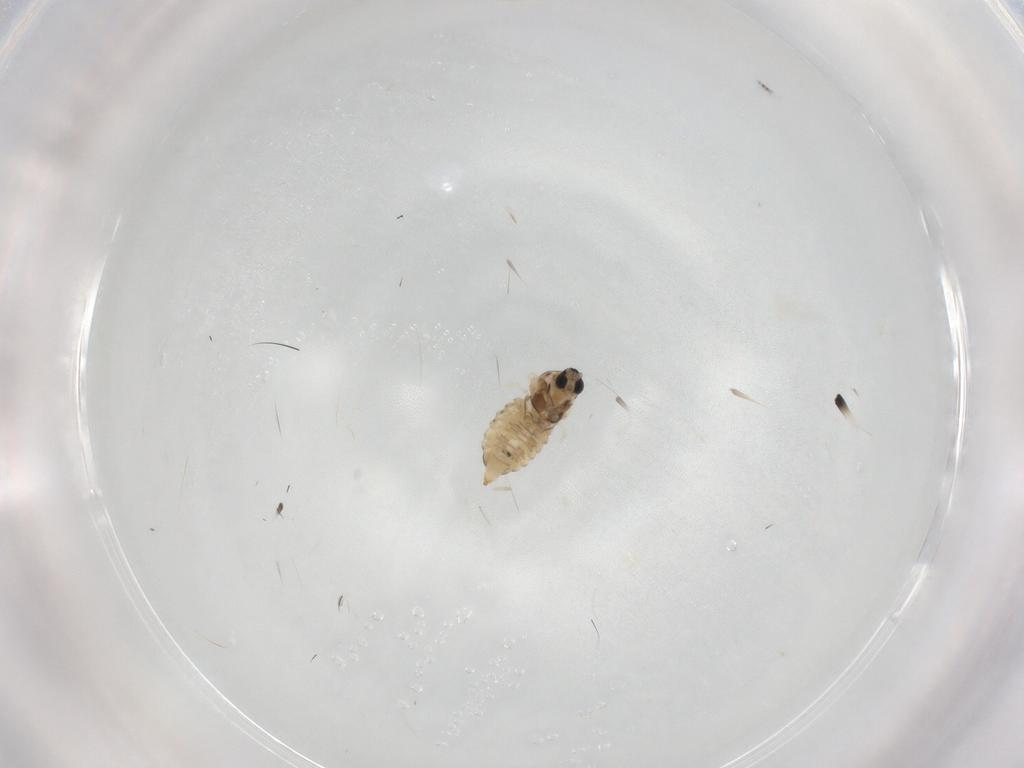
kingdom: Animalia
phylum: Arthropoda
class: Insecta
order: Diptera
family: Cecidomyiidae
